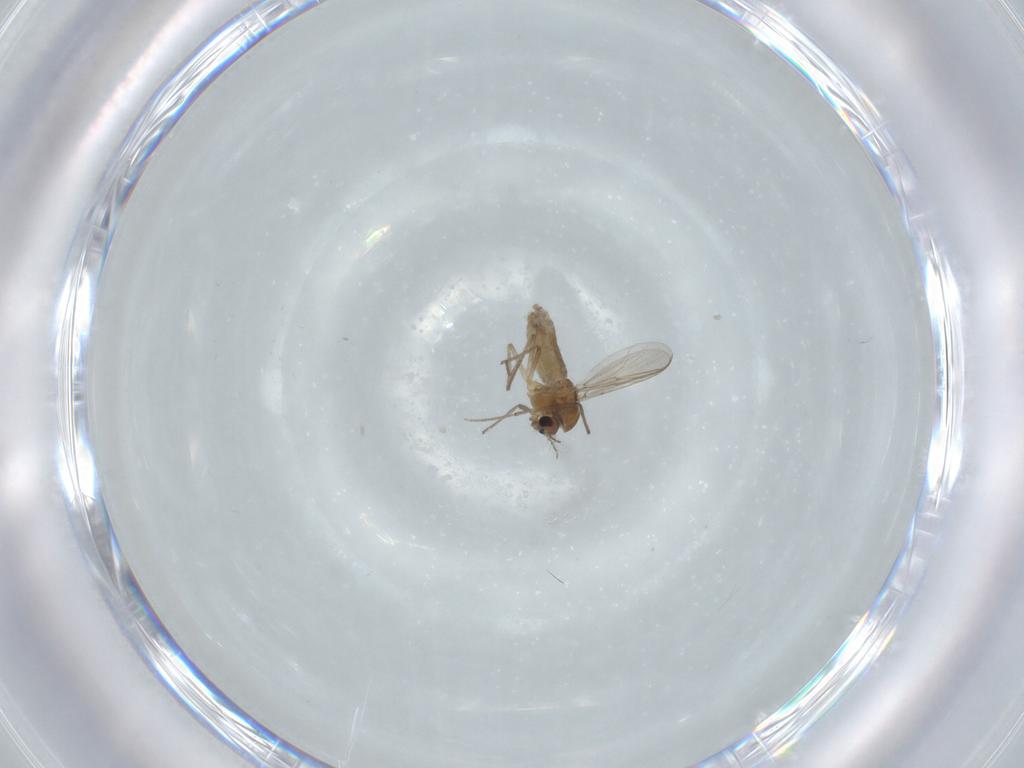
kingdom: Animalia
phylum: Arthropoda
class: Insecta
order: Diptera
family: Chironomidae
